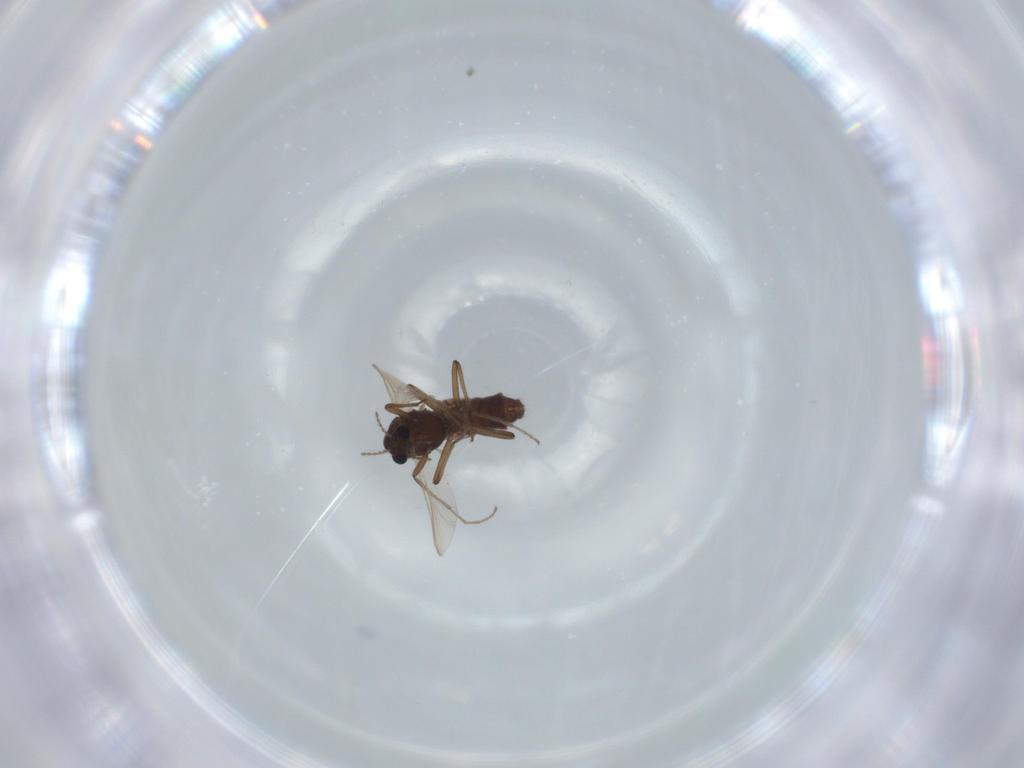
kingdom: Animalia
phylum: Arthropoda
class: Insecta
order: Diptera
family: Chironomidae
